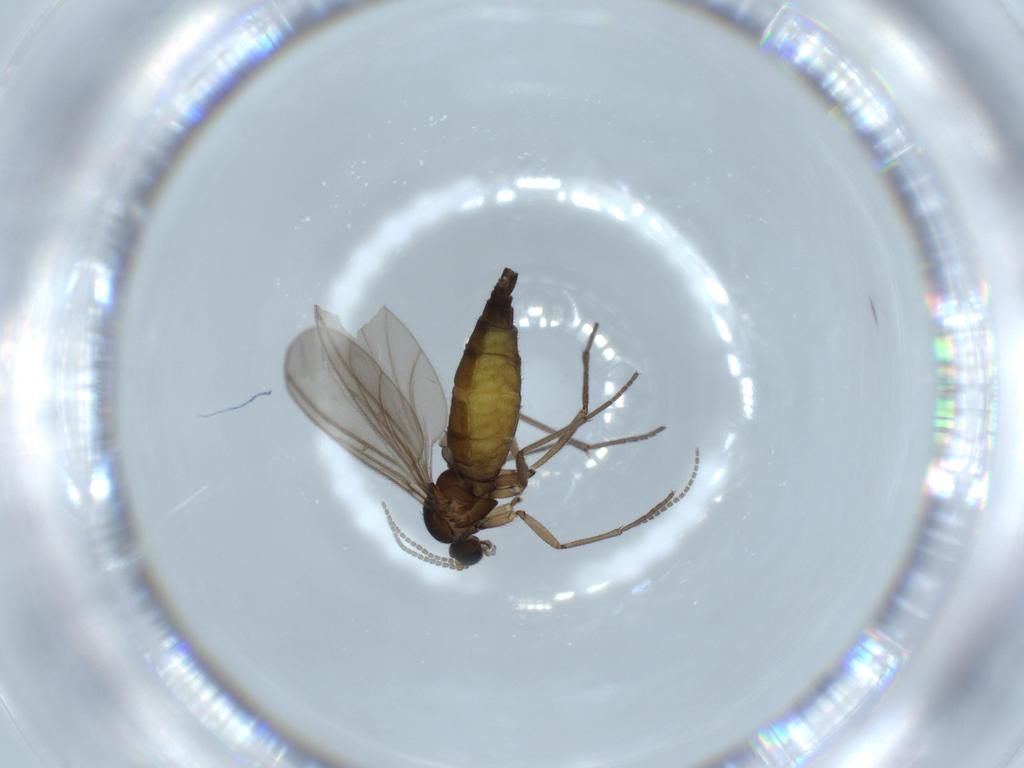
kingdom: Animalia
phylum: Arthropoda
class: Insecta
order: Diptera
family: Sciaridae
